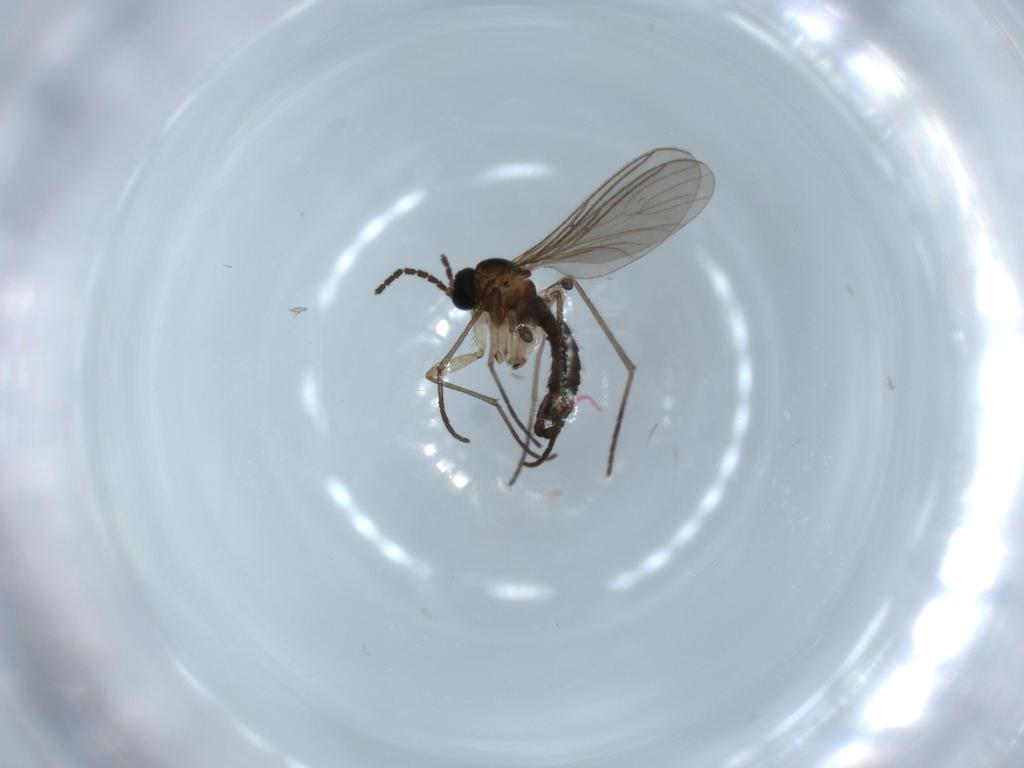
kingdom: Animalia
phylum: Arthropoda
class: Insecta
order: Diptera
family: Sciaridae
